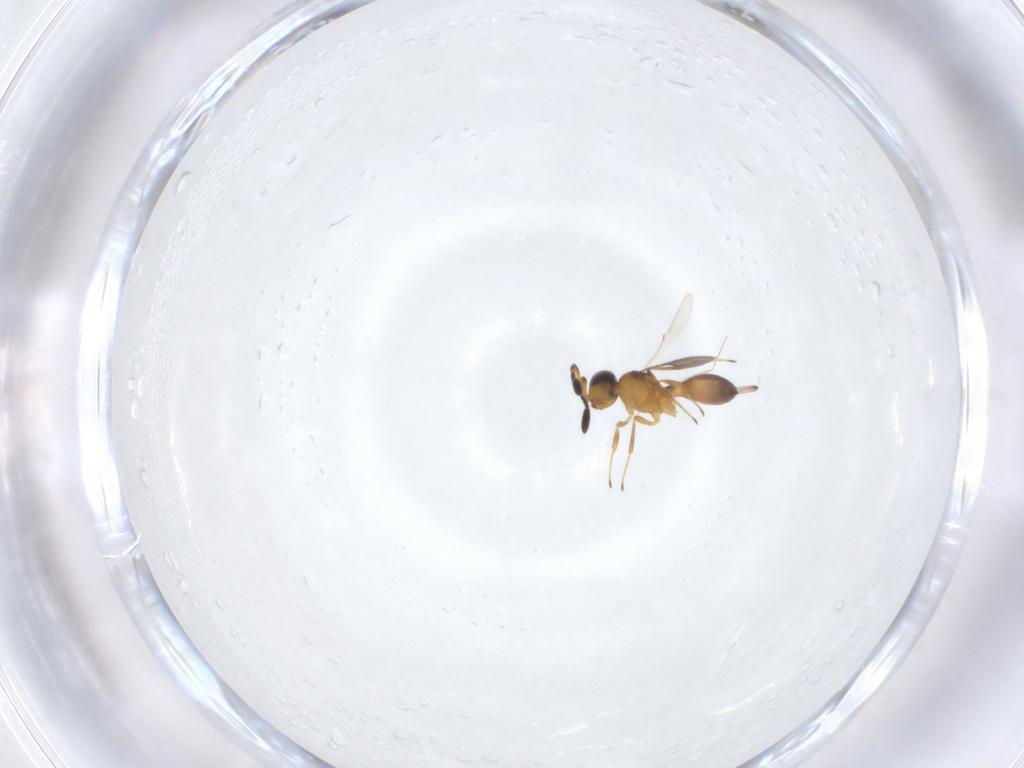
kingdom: Animalia
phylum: Arthropoda
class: Insecta
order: Hymenoptera
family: Scelionidae
